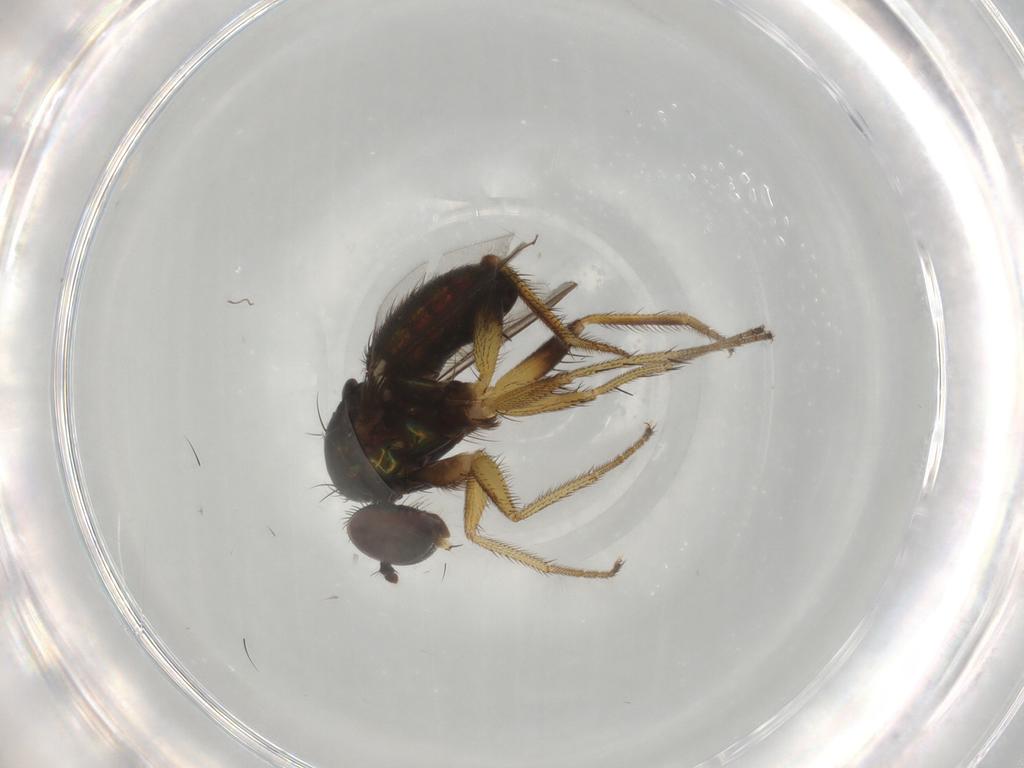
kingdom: Animalia
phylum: Arthropoda
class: Insecta
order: Diptera
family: Dolichopodidae
